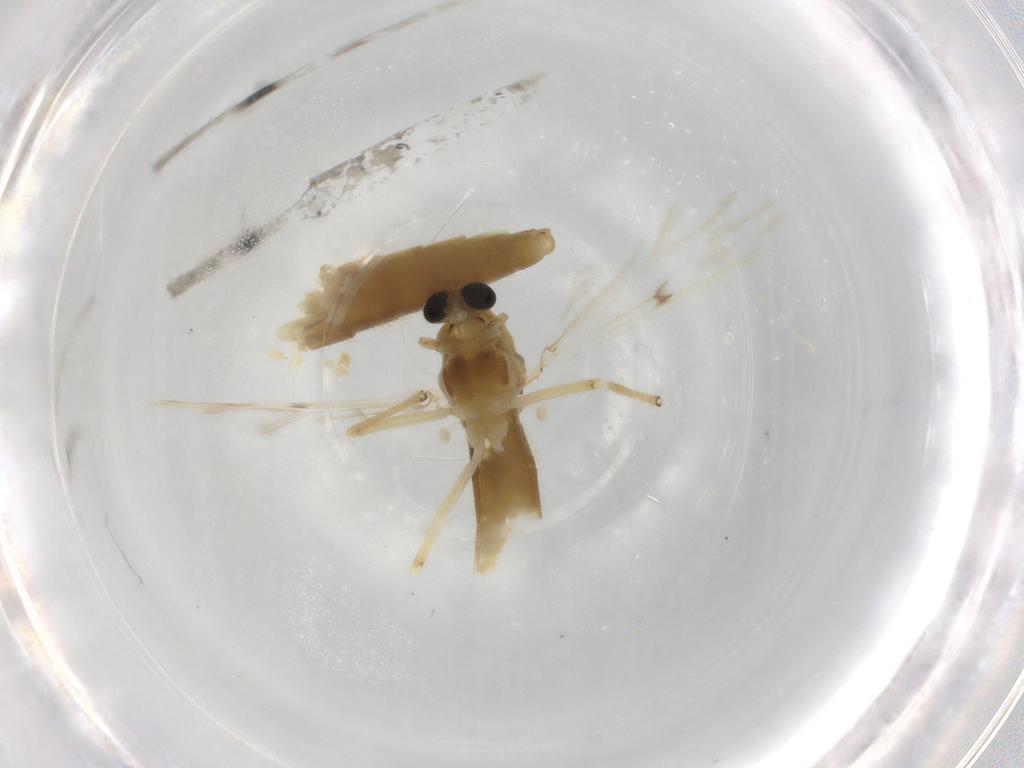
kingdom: Animalia
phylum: Arthropoda
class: Insecta
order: Diptera
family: Chironomidae
